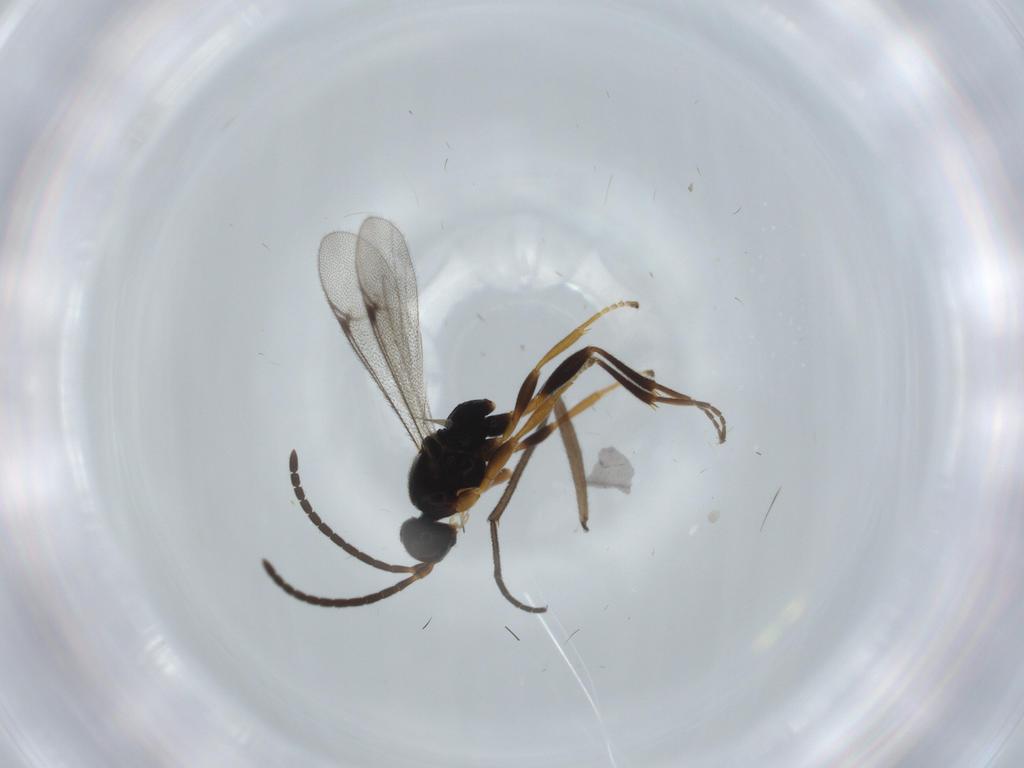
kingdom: Animalia
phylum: Arthropoda
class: Insecta
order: Hymenoptera
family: Proctotrupidae
